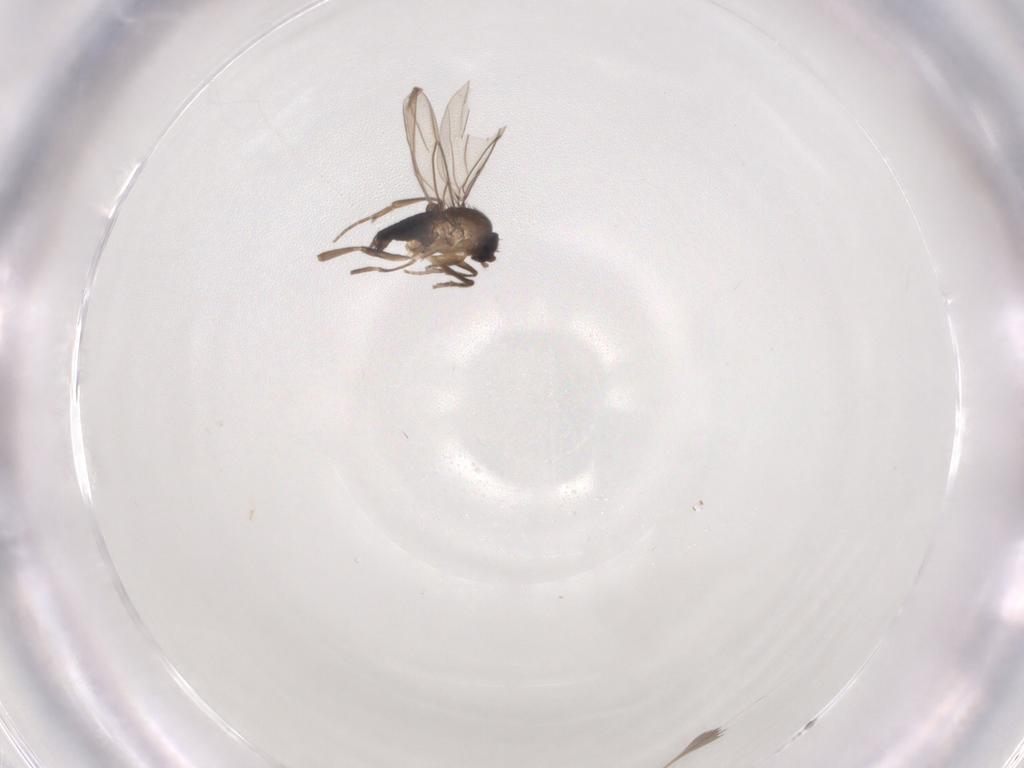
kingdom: Animalia
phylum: Arthropoda
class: Insecta
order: Diptera
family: Phoridae
